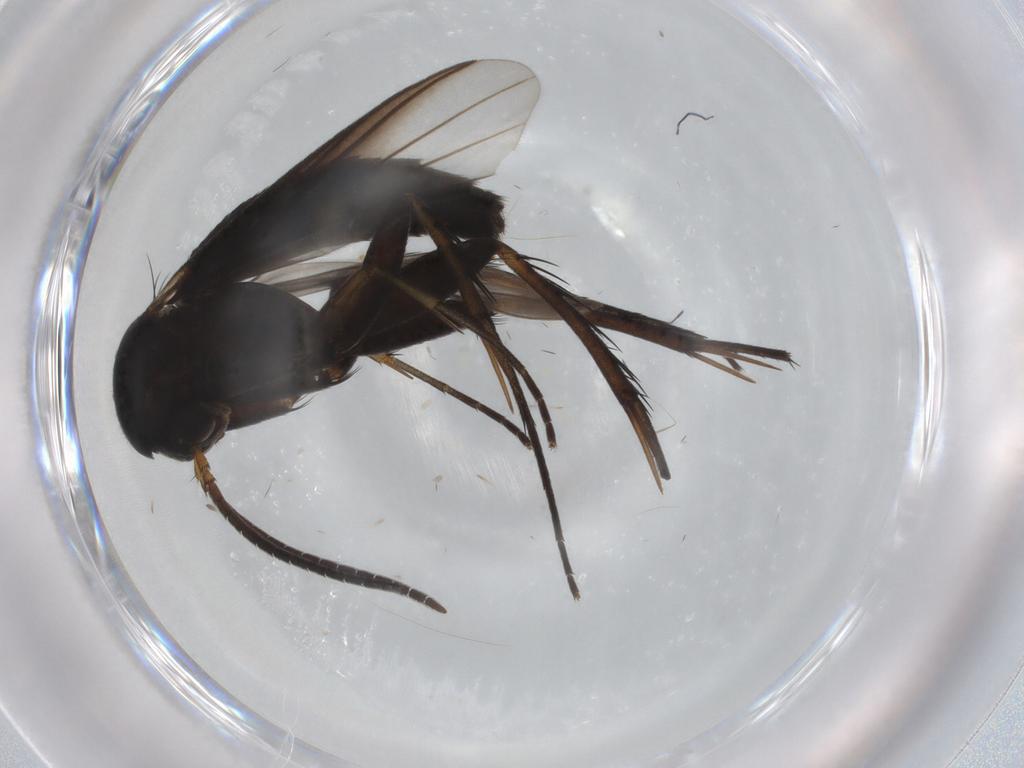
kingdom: Animalia
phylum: Arthropoda
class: Insecta
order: Diptera
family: Mycetophilidae
